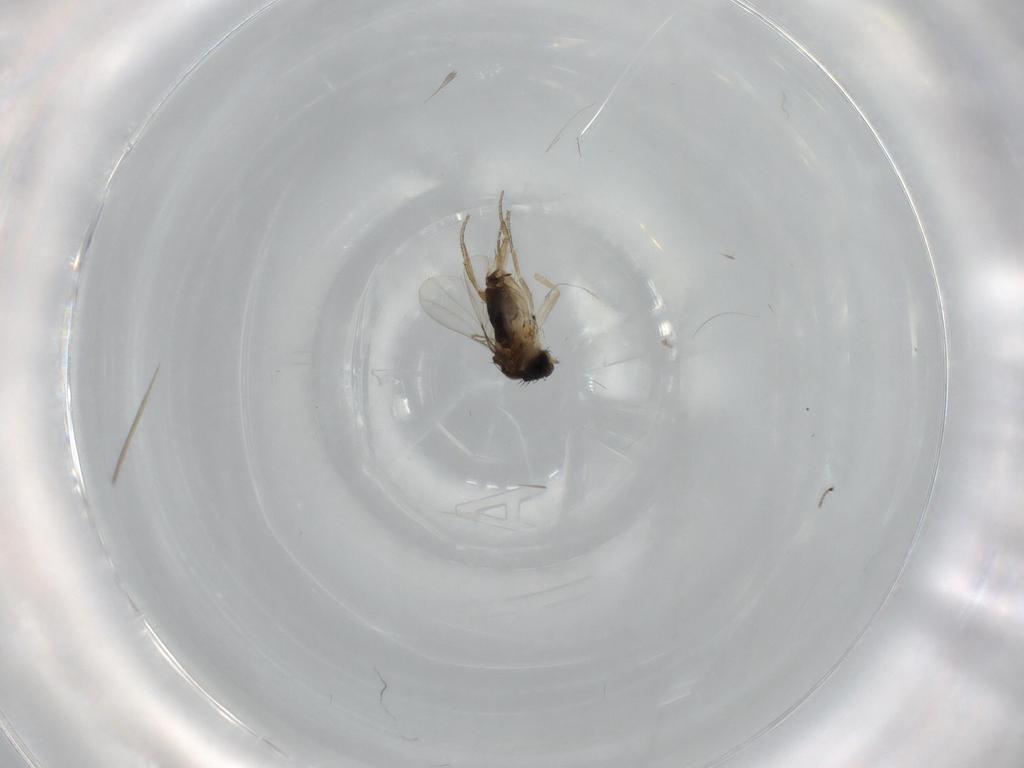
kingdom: Animalia
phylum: Arthropoda
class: Insecta
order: Diptera
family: Phoridae
